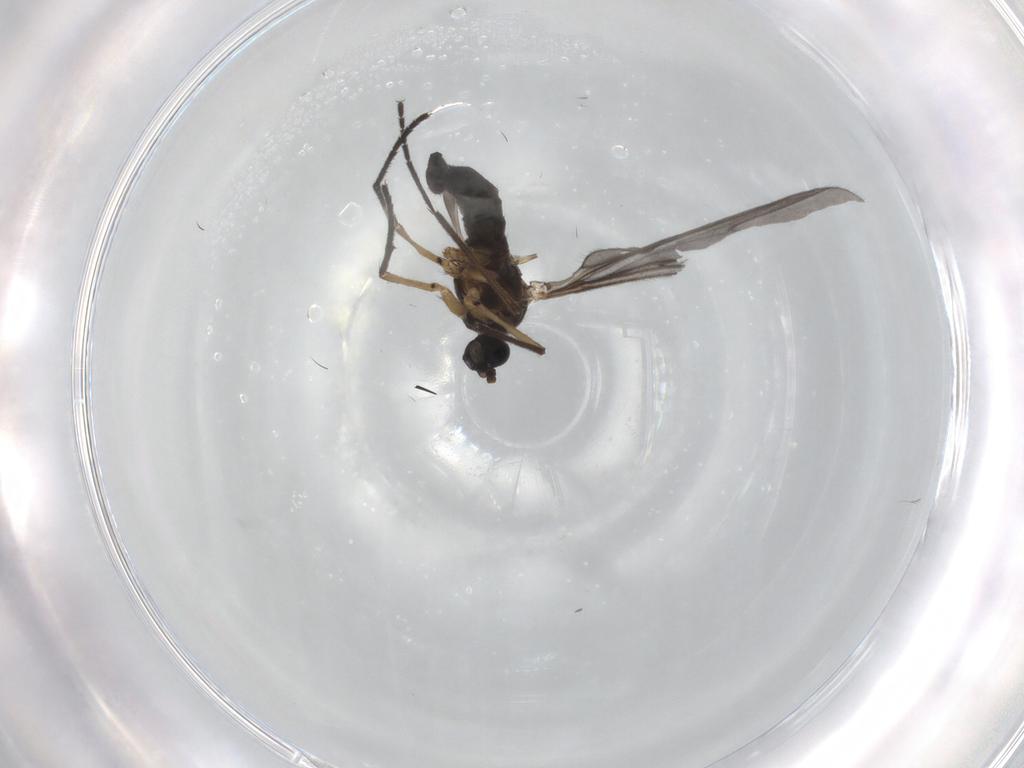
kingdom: Animalia
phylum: Arthropoda
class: Insecta
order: Diptera
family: Sciaridae
